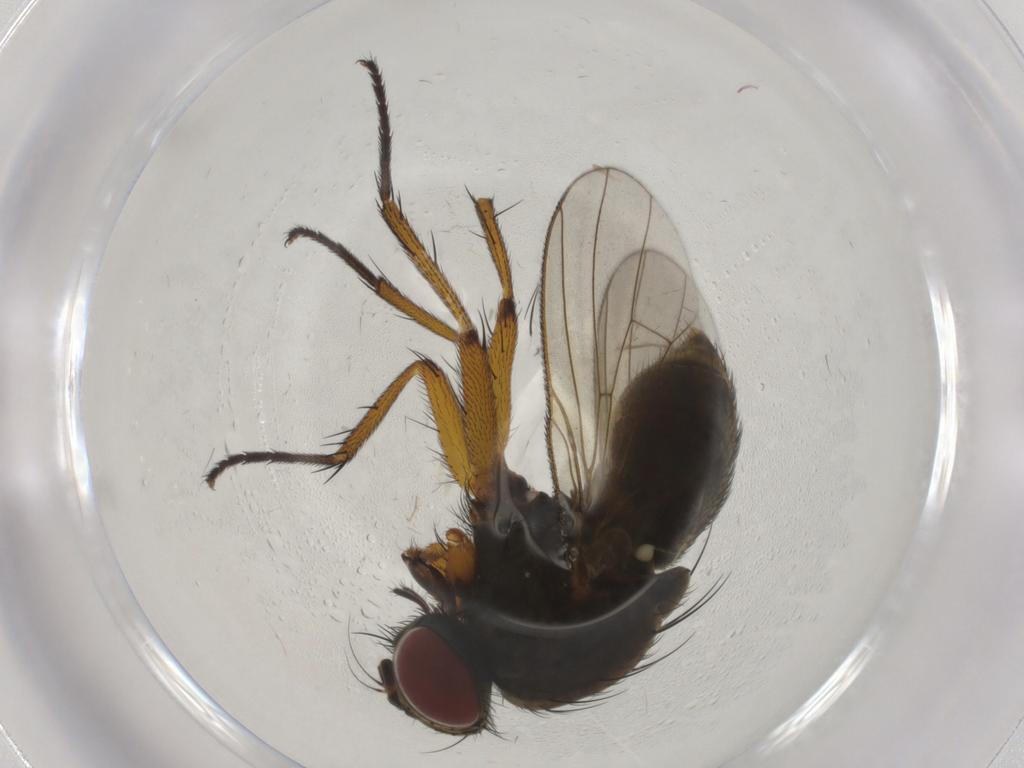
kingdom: Animalia
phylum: Arthropoda
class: Insecta
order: Diptera
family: Muscidae
